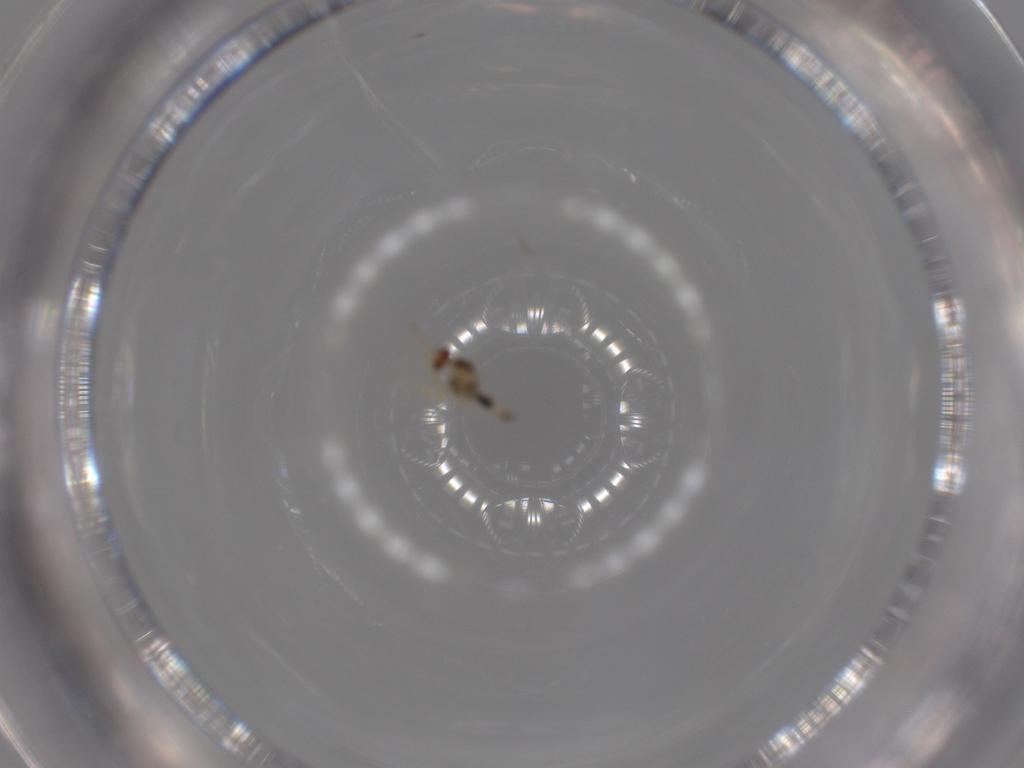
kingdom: Animalia
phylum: Arthropoda
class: Insecta
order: Diptera
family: Cecidomyiidae
